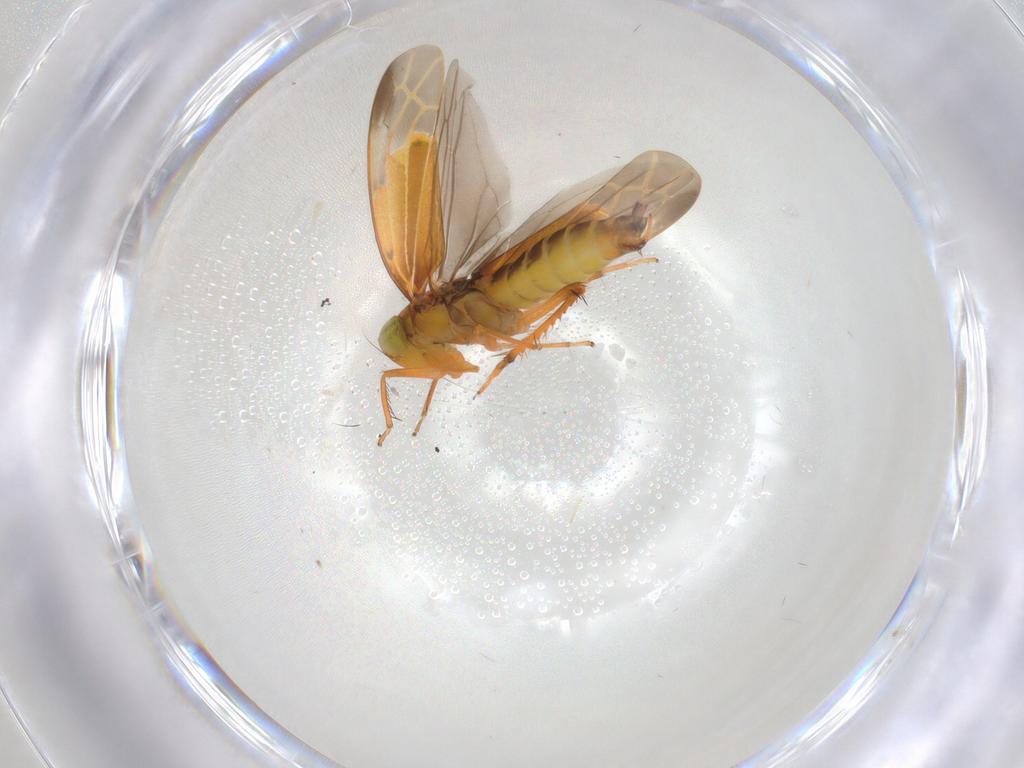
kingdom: Animalia
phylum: Arthropoda
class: Insecta
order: Hemiptera
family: Cicadellidae
